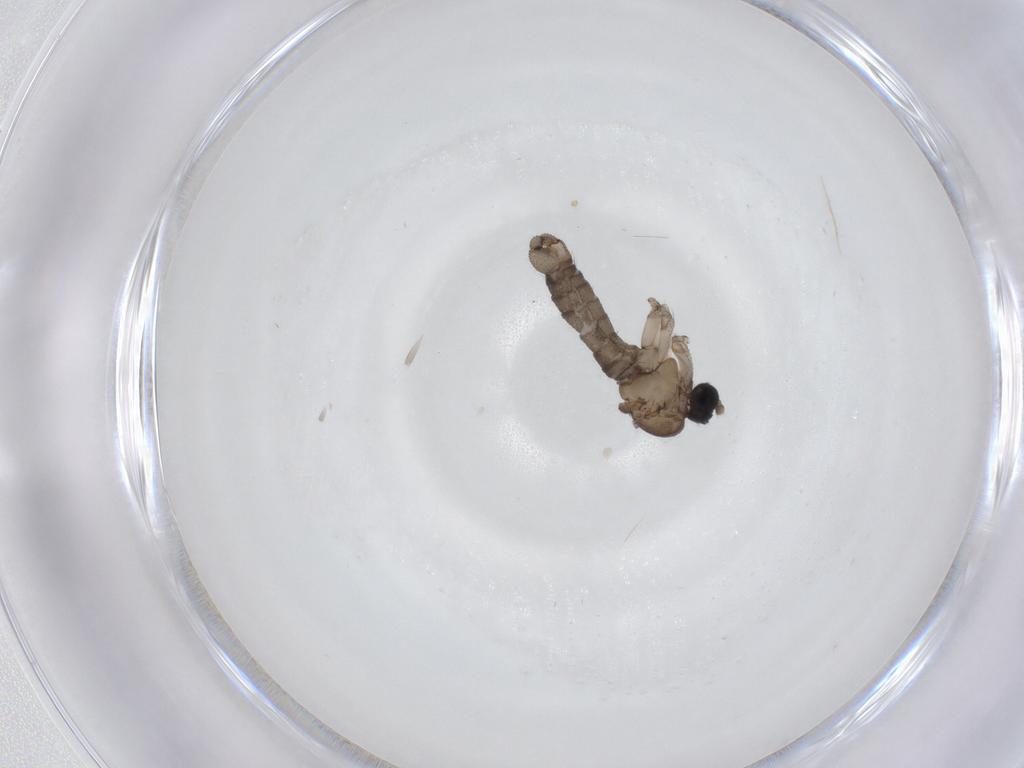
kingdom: Animalia
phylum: Arthropoda
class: Insecta
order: Diptera
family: Sciaridae
